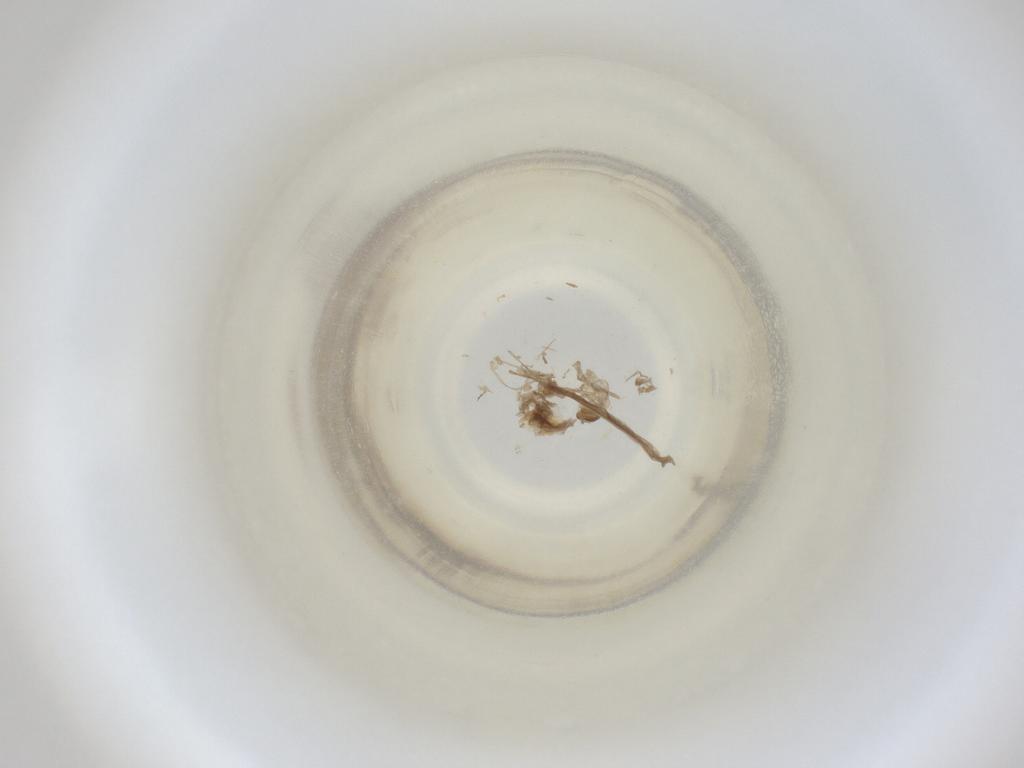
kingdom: Animalia
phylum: Arthropoda
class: Insecta
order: Diptera
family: Cecidomyiidae
